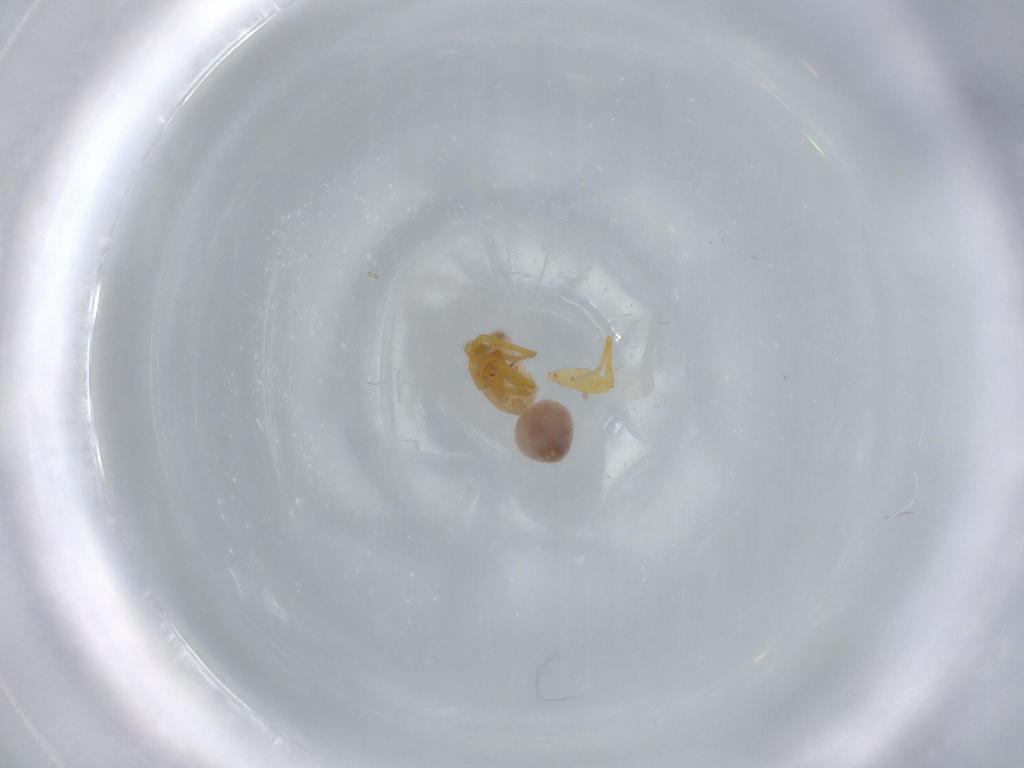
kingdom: Animalia
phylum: Arthropoda
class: Arachnida
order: Araneae
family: Oonopidae
